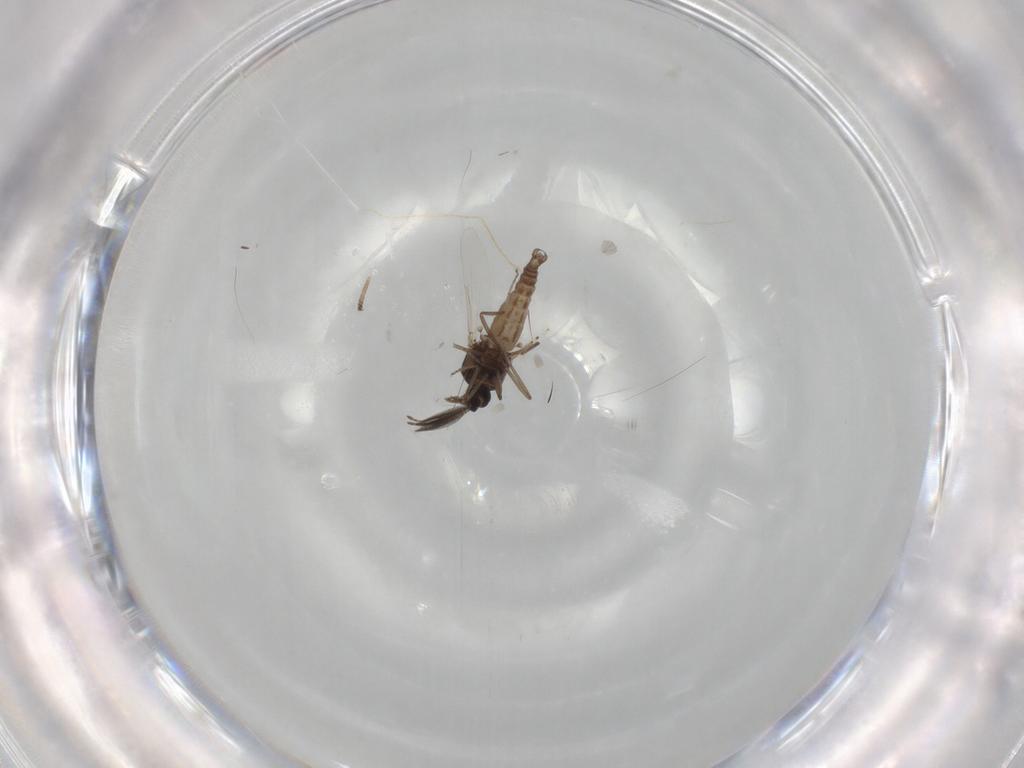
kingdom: Animalia
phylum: Arthropoda
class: Insecta
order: Diptera
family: Ceratopogonidae
